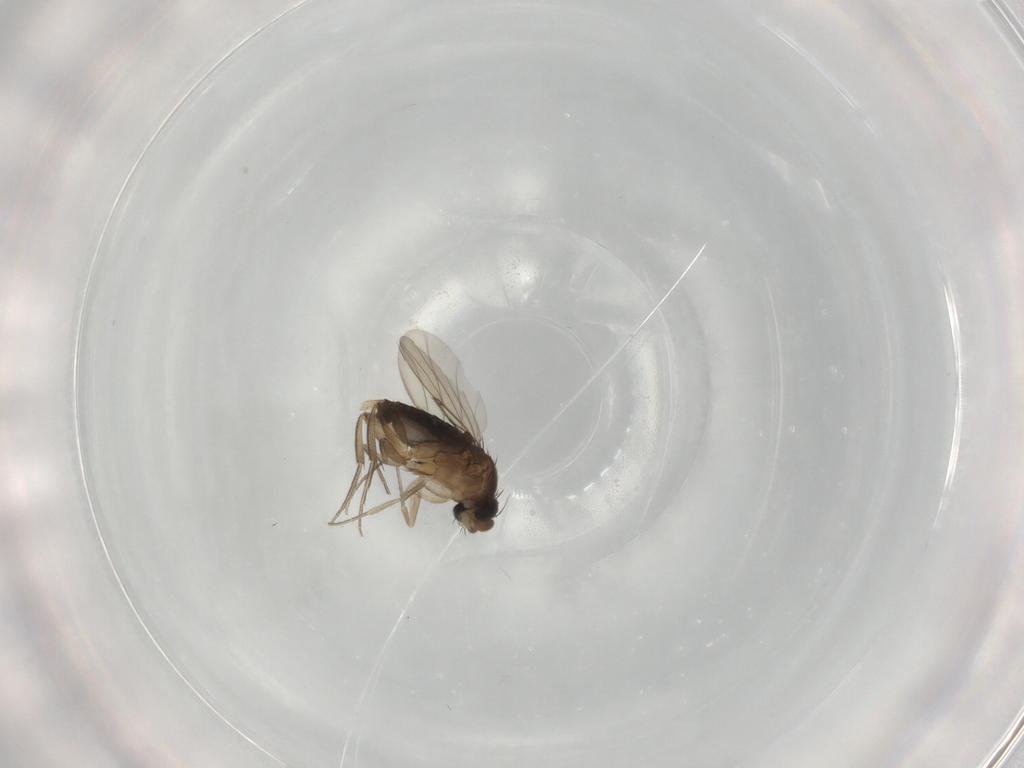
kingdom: Animalia
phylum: Arthropoda
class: Insecta
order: Diptera
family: Phoridae
